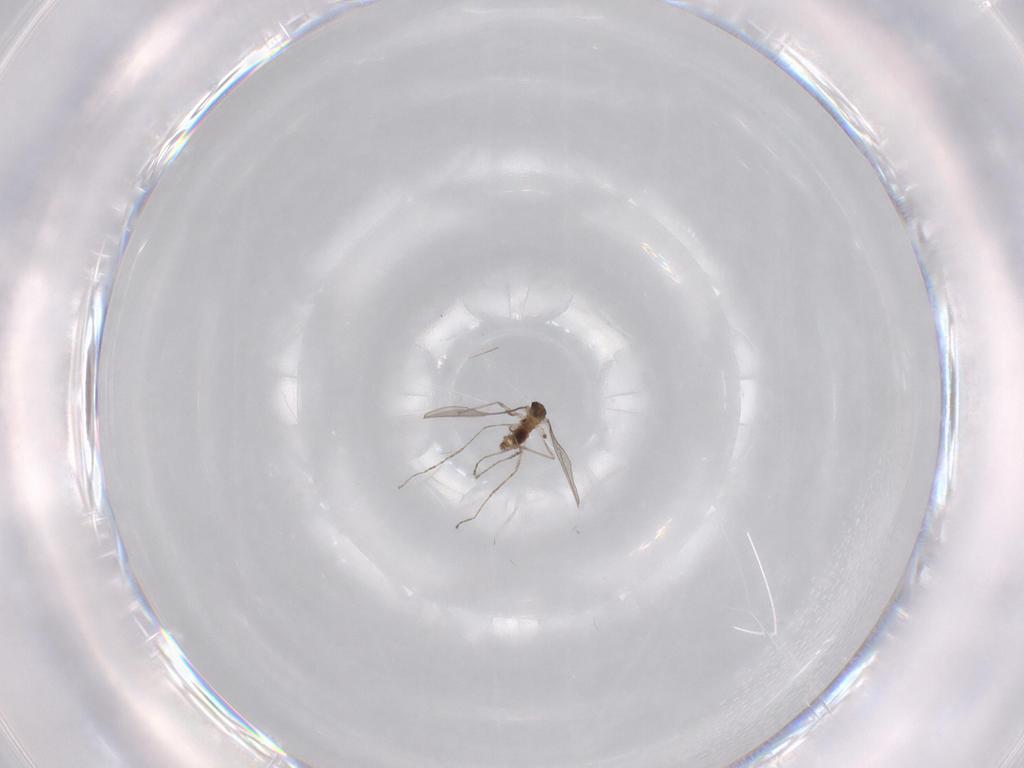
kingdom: Animalia
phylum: Arthropoda
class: Insecta
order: Diptera
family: Cecidomyiidae
